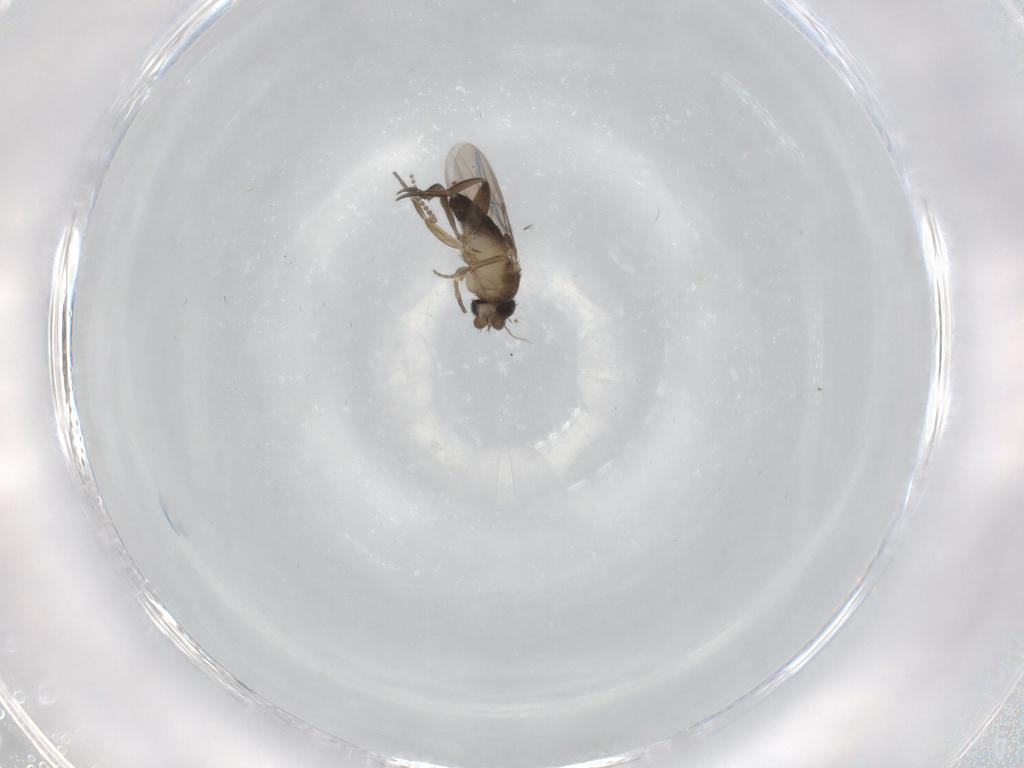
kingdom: Animalia
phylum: Arthropoda
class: Insecta
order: Diptera
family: Phoridae
